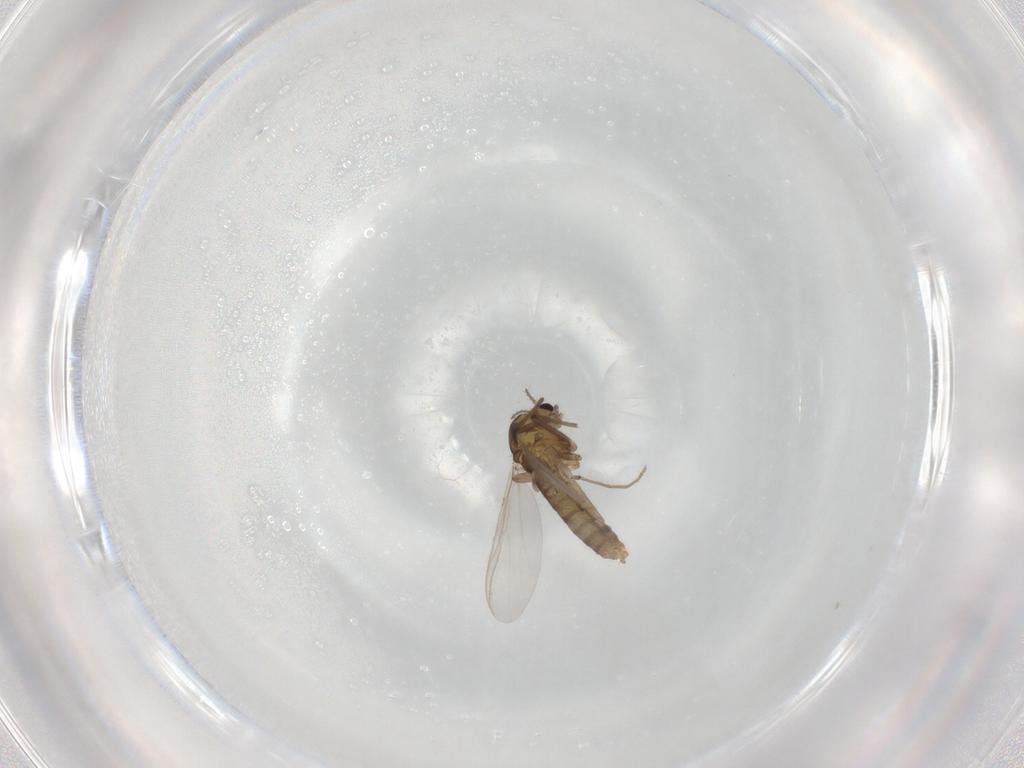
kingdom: Animalia
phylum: Arthropoda
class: Insecta
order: Diptera
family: Chironomidae
